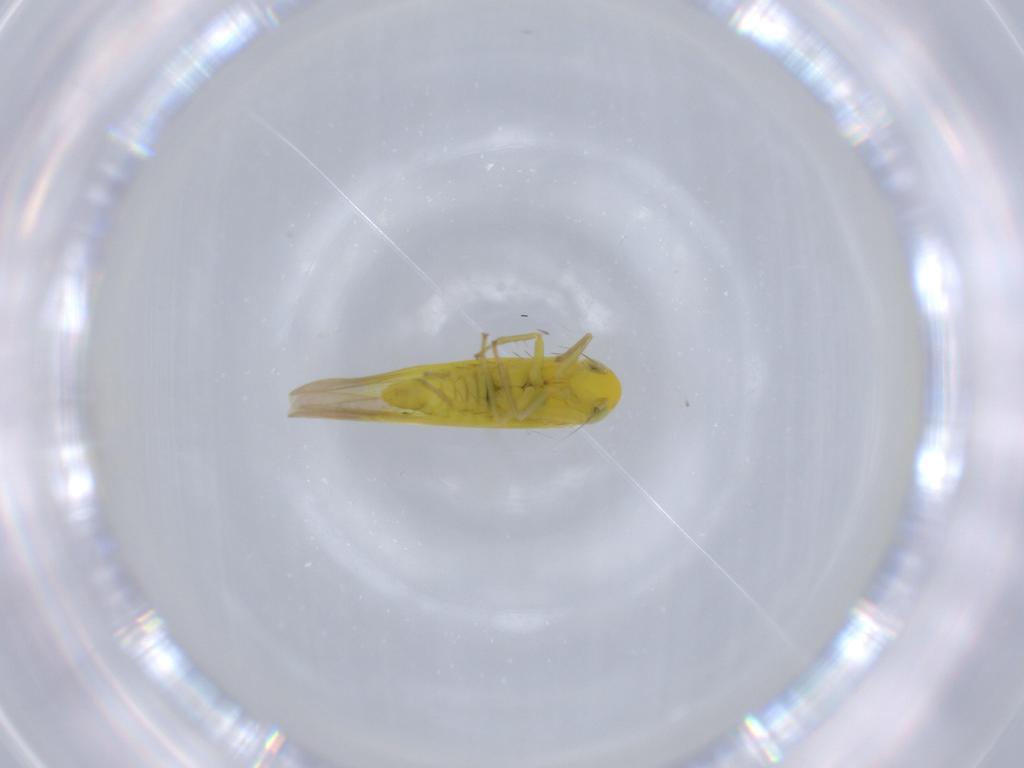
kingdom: Animalia
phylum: Arthropoda
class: Insecta
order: Hemiptera
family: Cicadellidae
